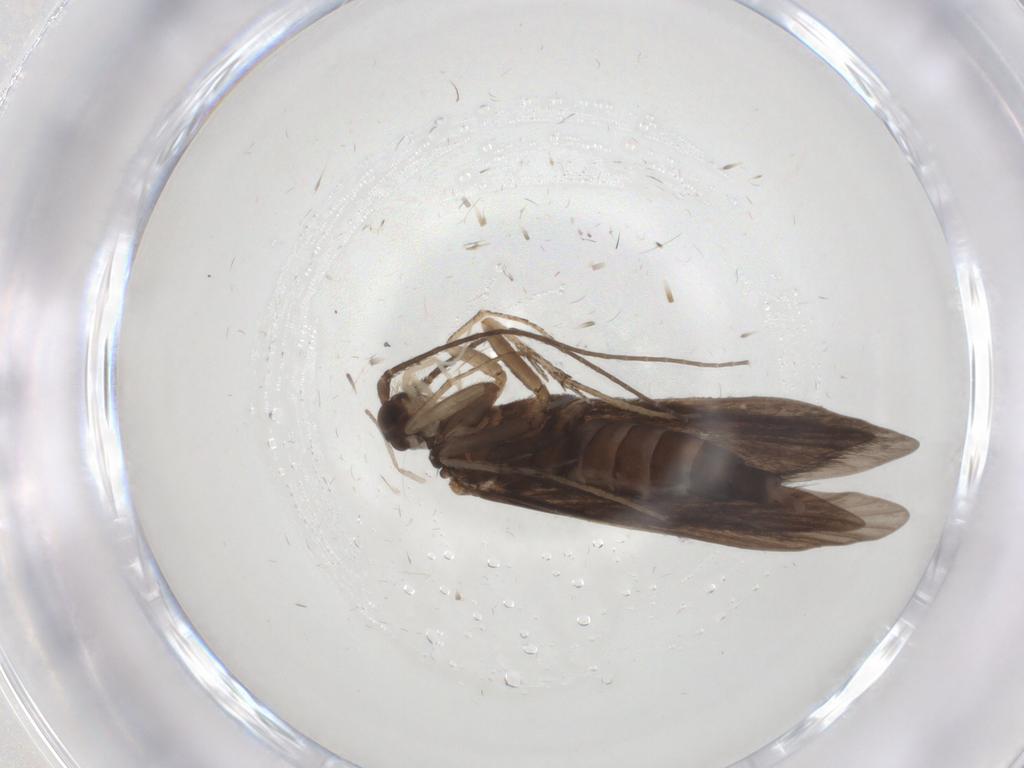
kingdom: Animalia
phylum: Arthropoda
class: Insecta
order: Trichoptera
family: Xiphocentronidae
